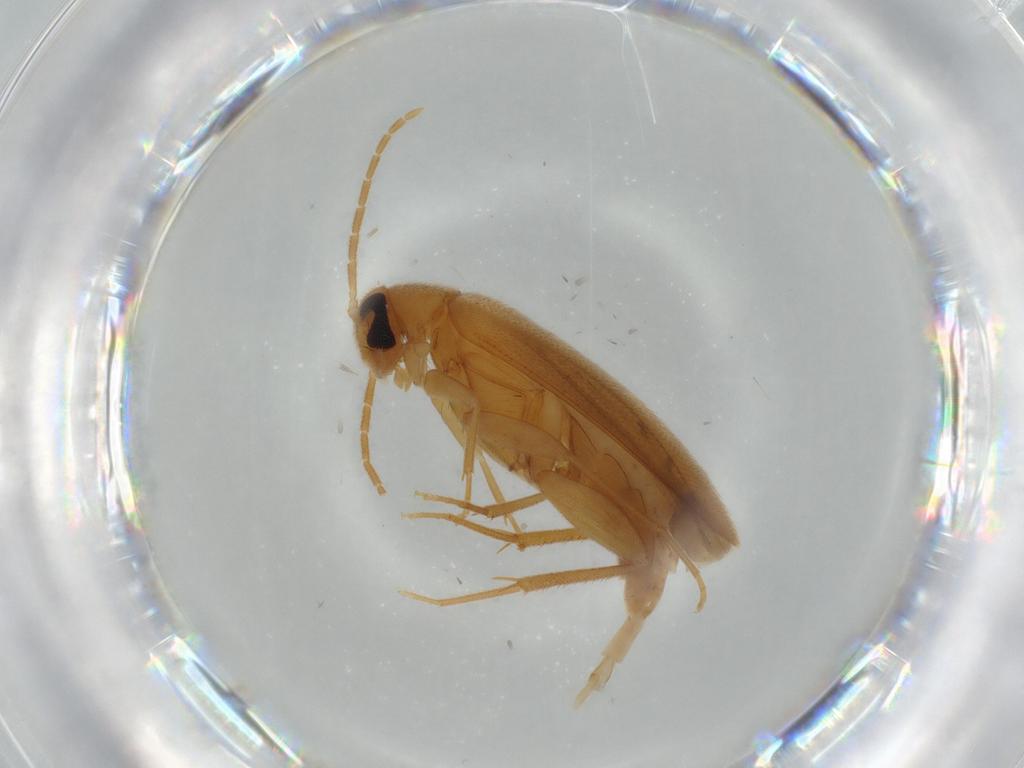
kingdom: Animalia
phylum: Arthropoda
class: Insecta
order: Coleoptera
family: Scraptiidae
